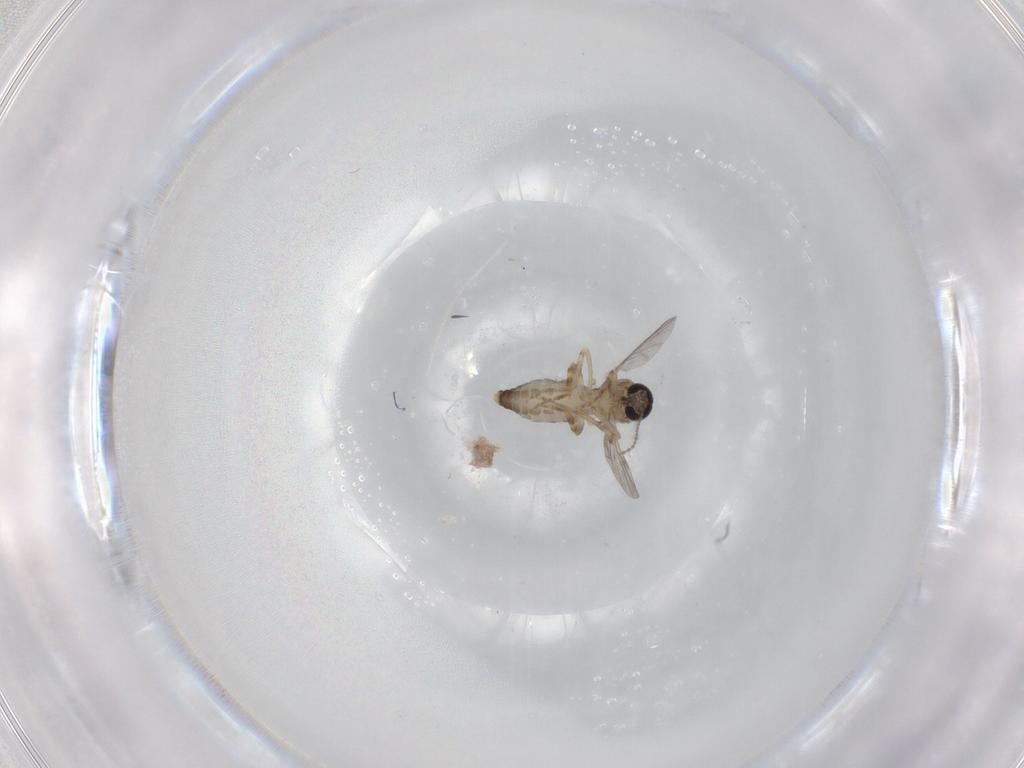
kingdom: Animalia
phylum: Arthropoda
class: Insecta
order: Diptera
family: Ceratopogonidae
